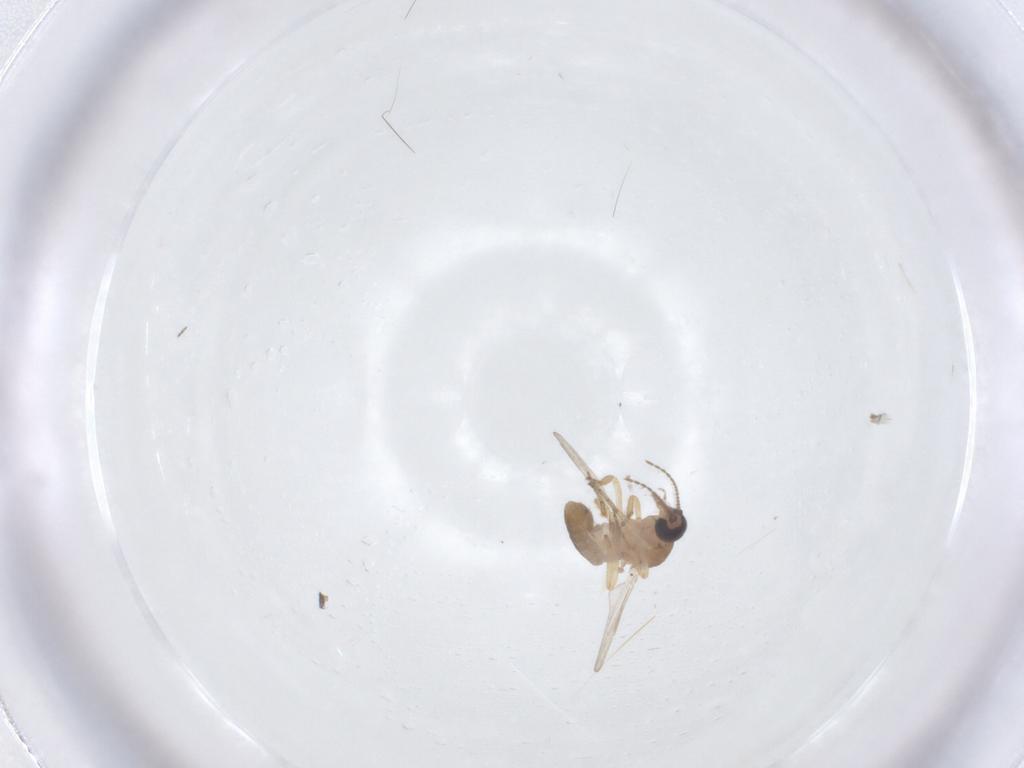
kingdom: Animalia
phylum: Arthropoda
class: Insecta
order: Diptera
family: Ceratopogonidae
